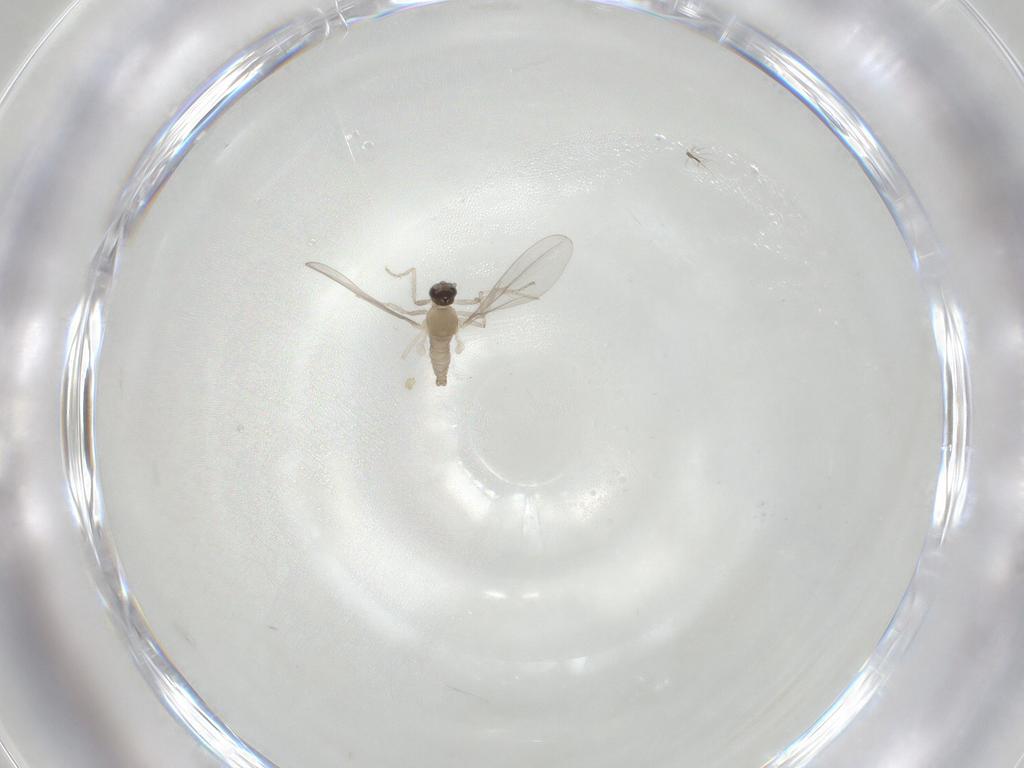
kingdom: Animalia
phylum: Arthropoda
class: Insecta
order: Diptera
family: Cecidomyiidae
